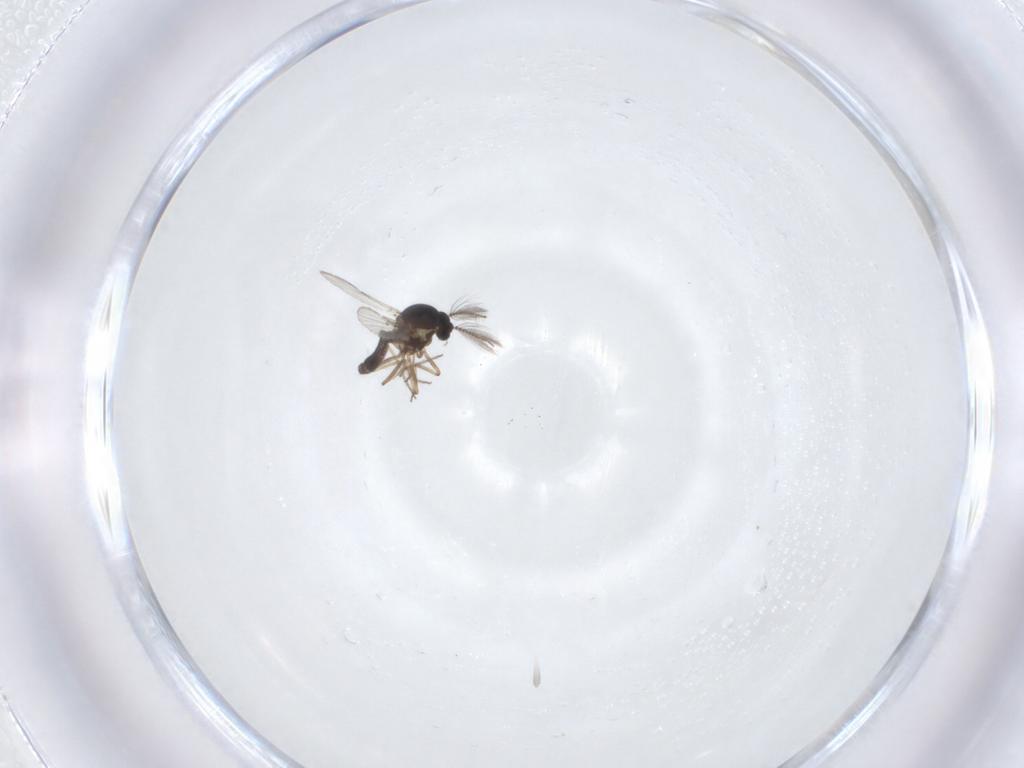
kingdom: Animalia
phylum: Arthropoda
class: Insecta
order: Diptera
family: Ceratopogonidae
